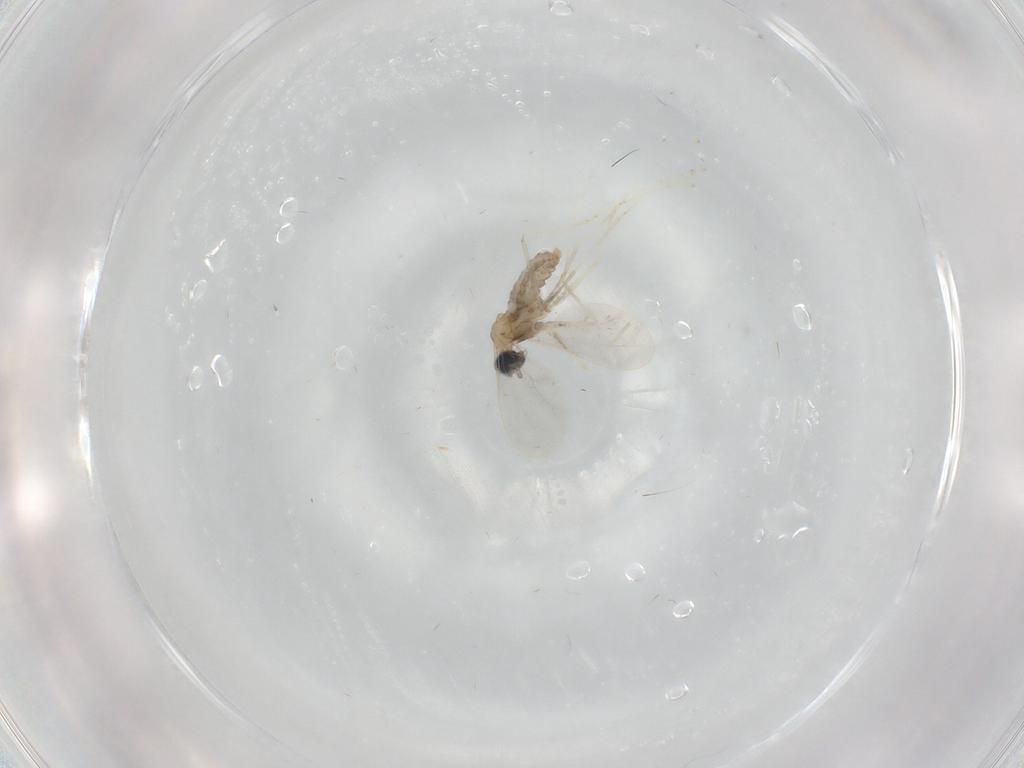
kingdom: Animalia
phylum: Arthropoda
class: Insecta
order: Diptera
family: Cecidomyiidae
